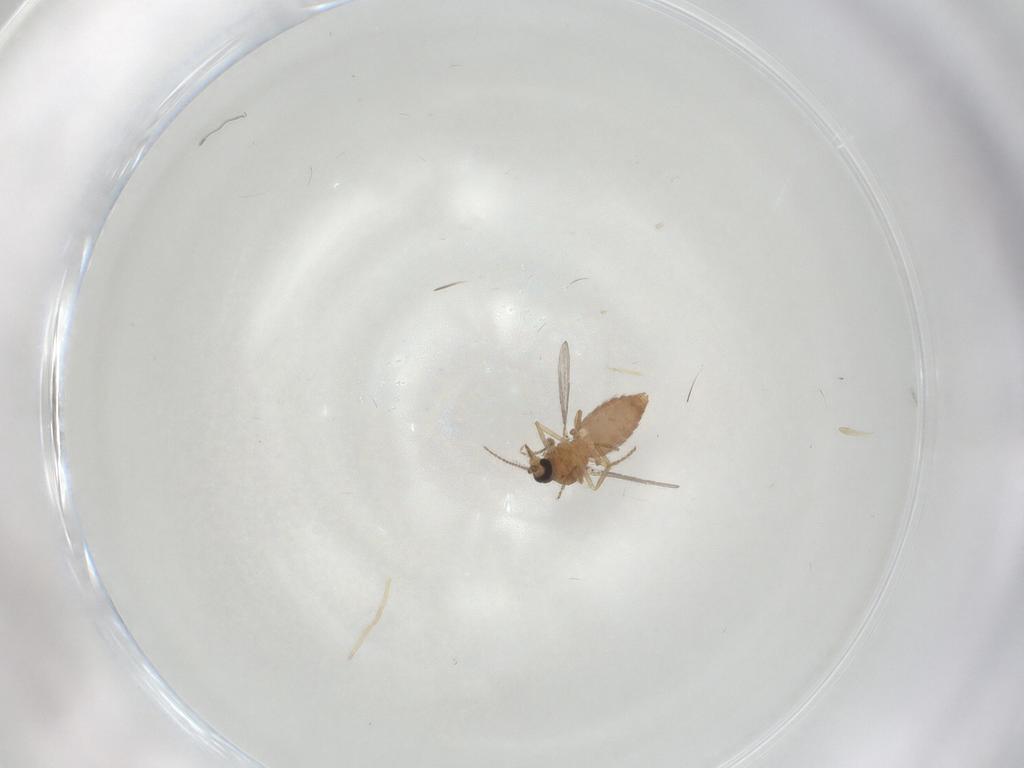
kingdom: Animalia
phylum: Arthropoda
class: Insecta
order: Diptera
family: Ceratopogonidae
